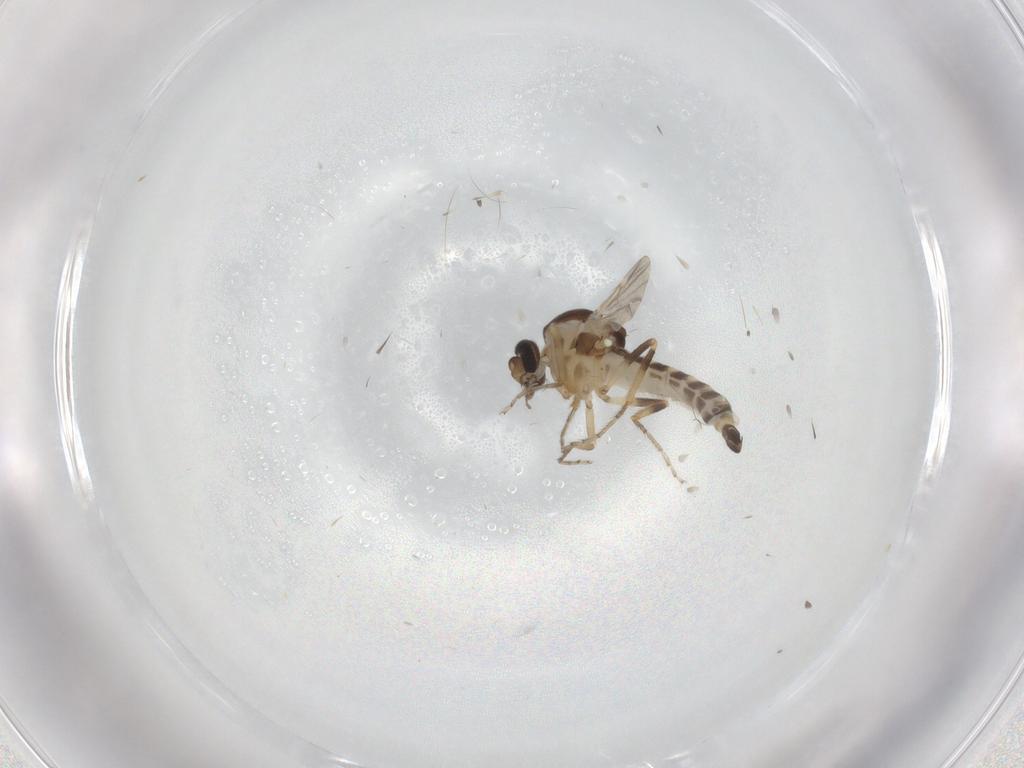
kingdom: Animalia
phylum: Arthropoda
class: Insecta
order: Diptera
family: Ceratopogonidae
